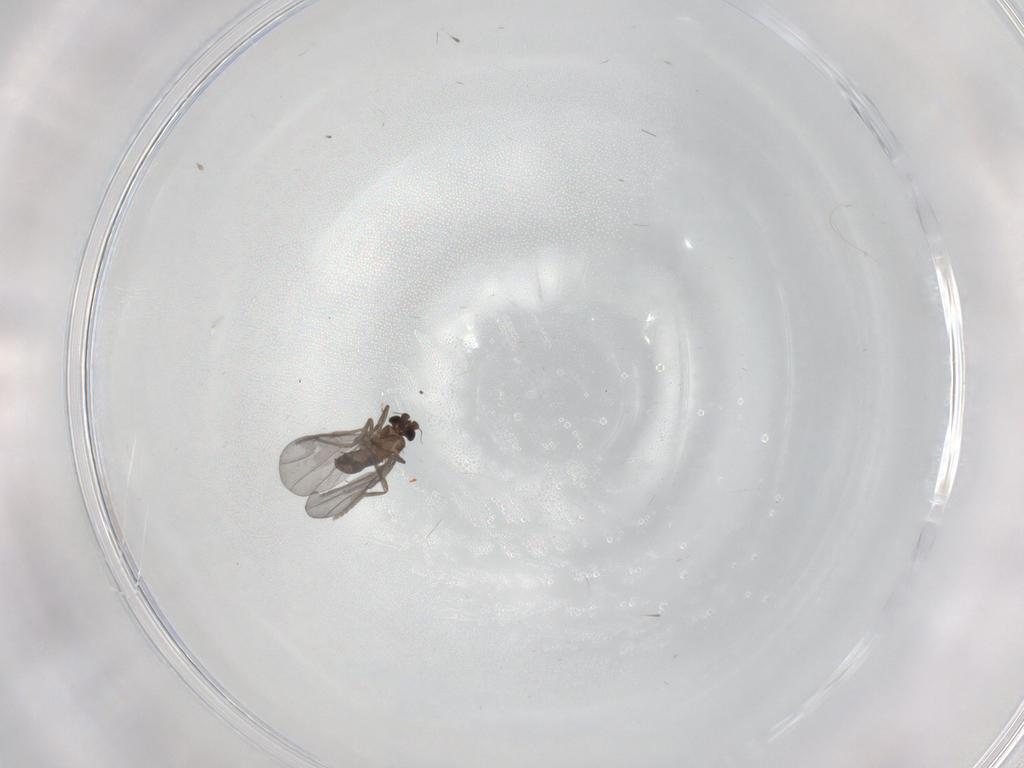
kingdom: Animalia
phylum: Arthropoda
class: Insecta
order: Diptera
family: Phoridae
